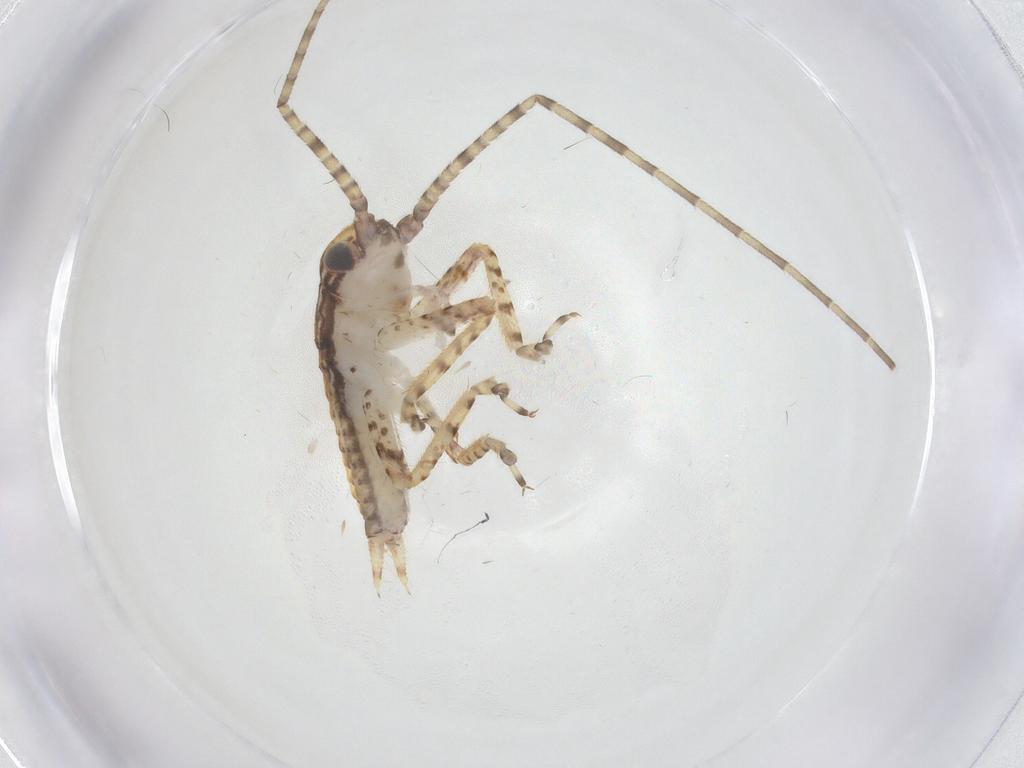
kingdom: Animalia
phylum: Arthropoda
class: Insecta
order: Orthoptera
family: Gryllidae
